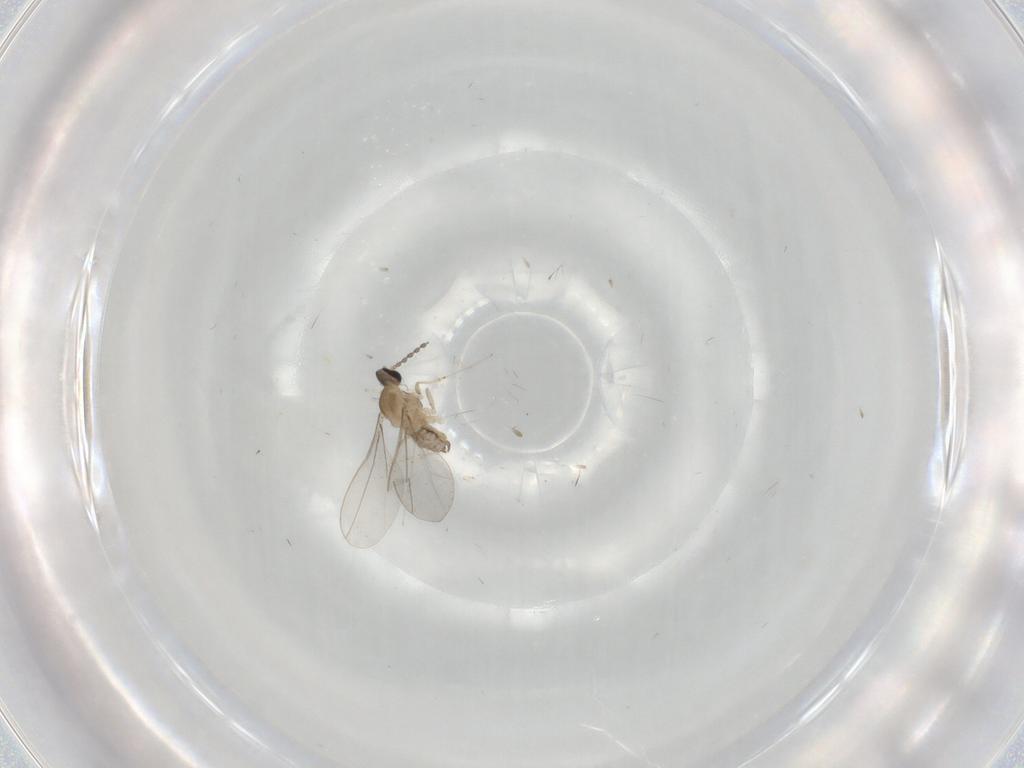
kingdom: Animalia
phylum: Arthropoda
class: Insecta
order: Diptera
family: Cecidomyiidae
